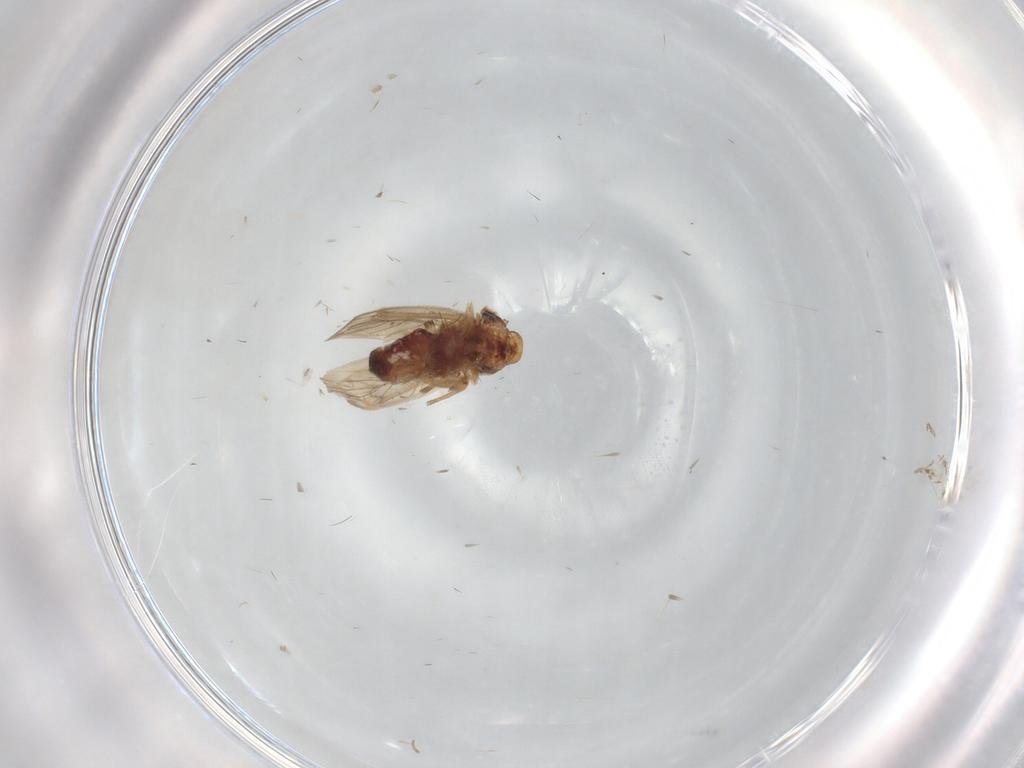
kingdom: Animalia
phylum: Arthropoda
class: Insecta
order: Psocodea
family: Lepidopsocidae
